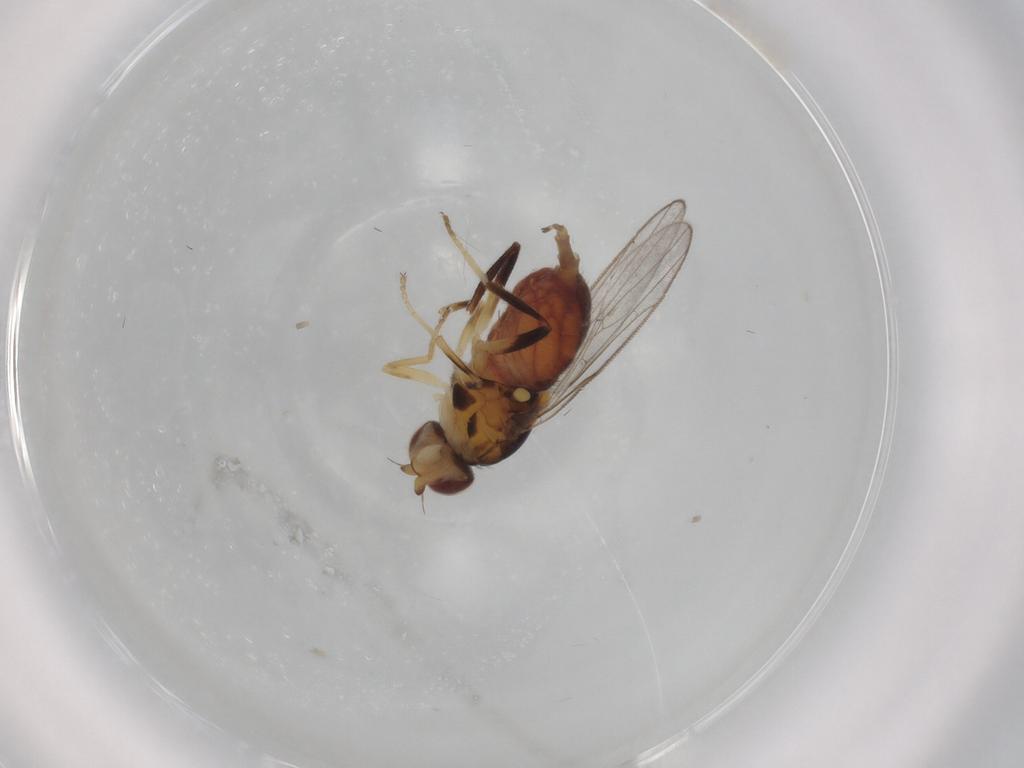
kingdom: Animalia
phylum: Arthropoda
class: Insecta
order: Diptera
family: Chloropidae
